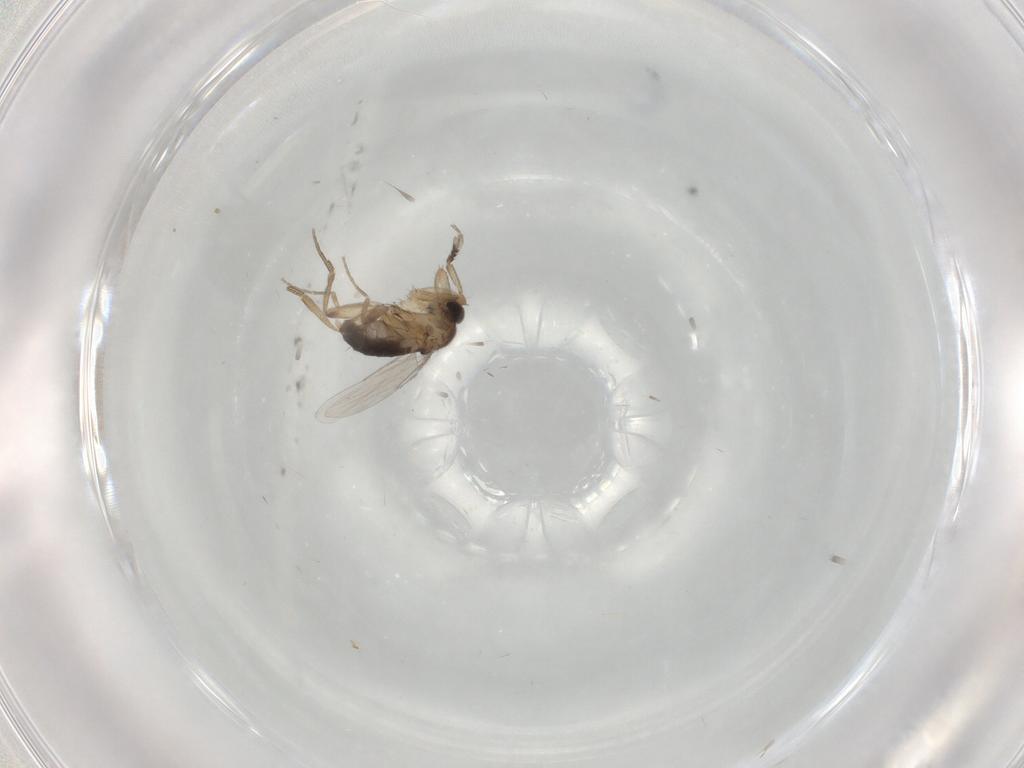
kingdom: Animalia
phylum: Arthropoda
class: Insecta
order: Diptera
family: Phoridae
